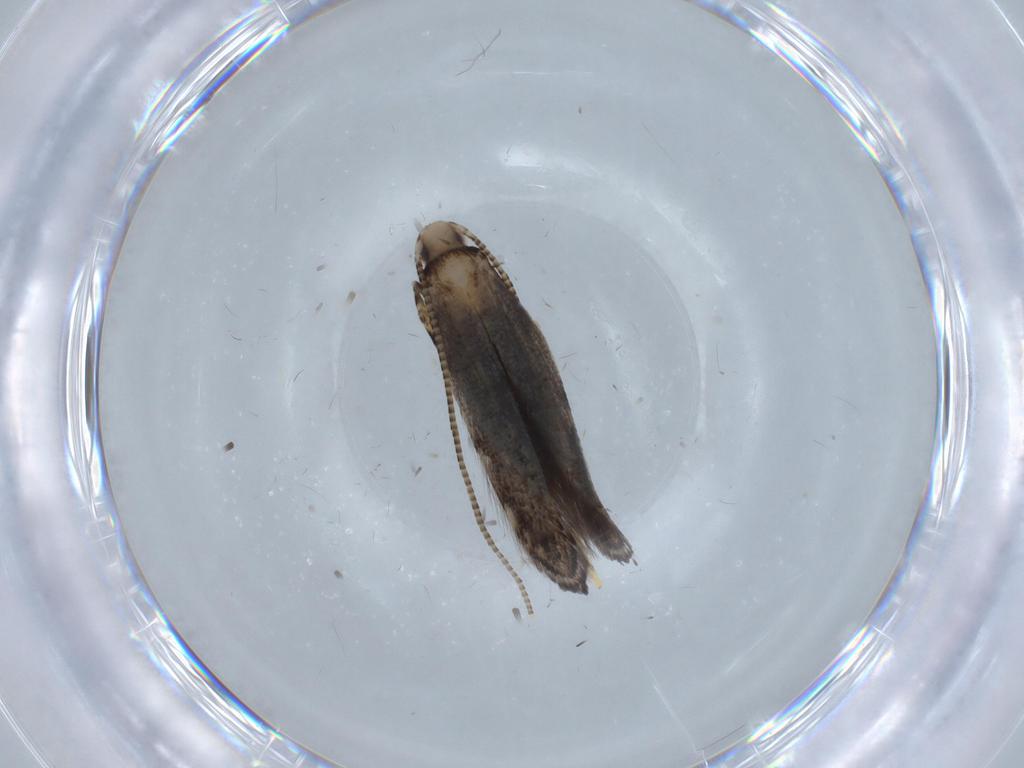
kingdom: Animalia
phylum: Arthropoda
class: Insecta
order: Lepidoptera
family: Gracillariidae
